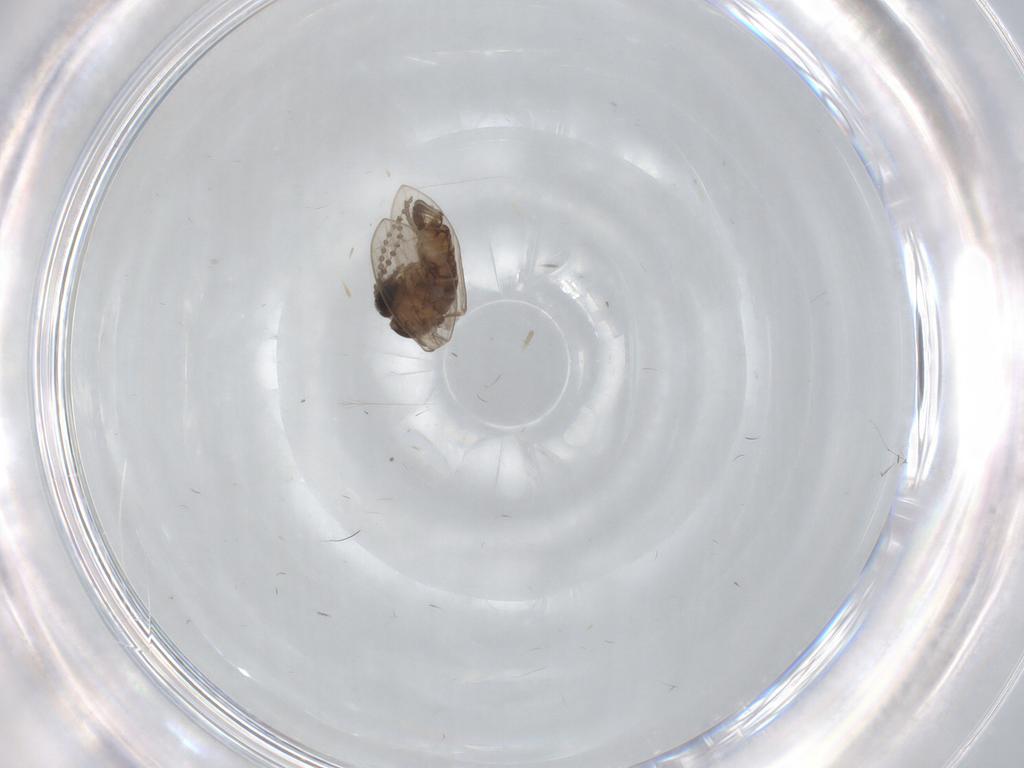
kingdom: Animalia
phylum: Arthropoda
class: Insecta
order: Diptera
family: Psychodidae
